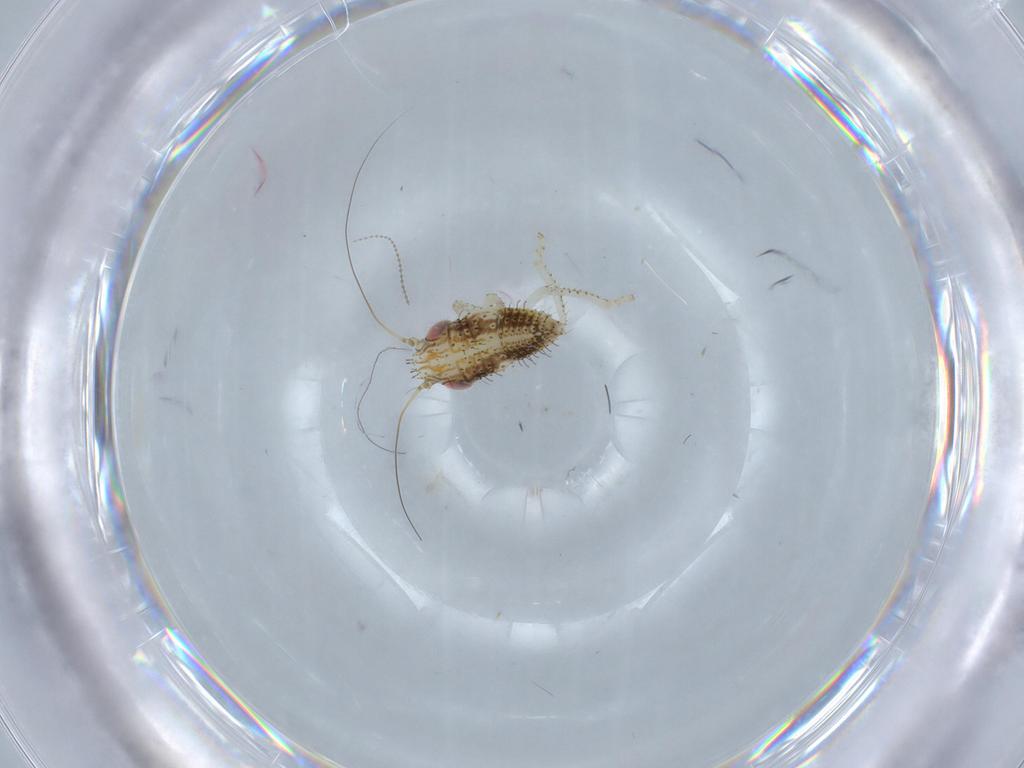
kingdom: Animalia
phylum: Arthropoda
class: Insecta
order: Hemiptera
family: Cicadellidae
